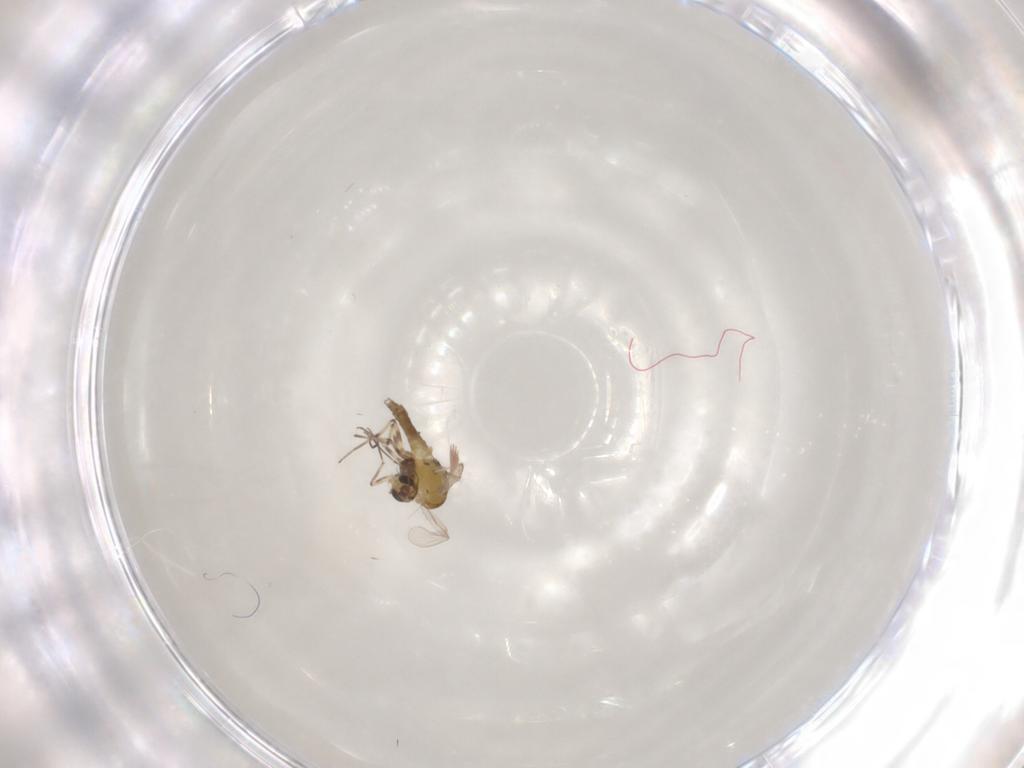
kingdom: Animalia
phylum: Arthropoda
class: Insecta
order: Diptera
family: Chironomidae
